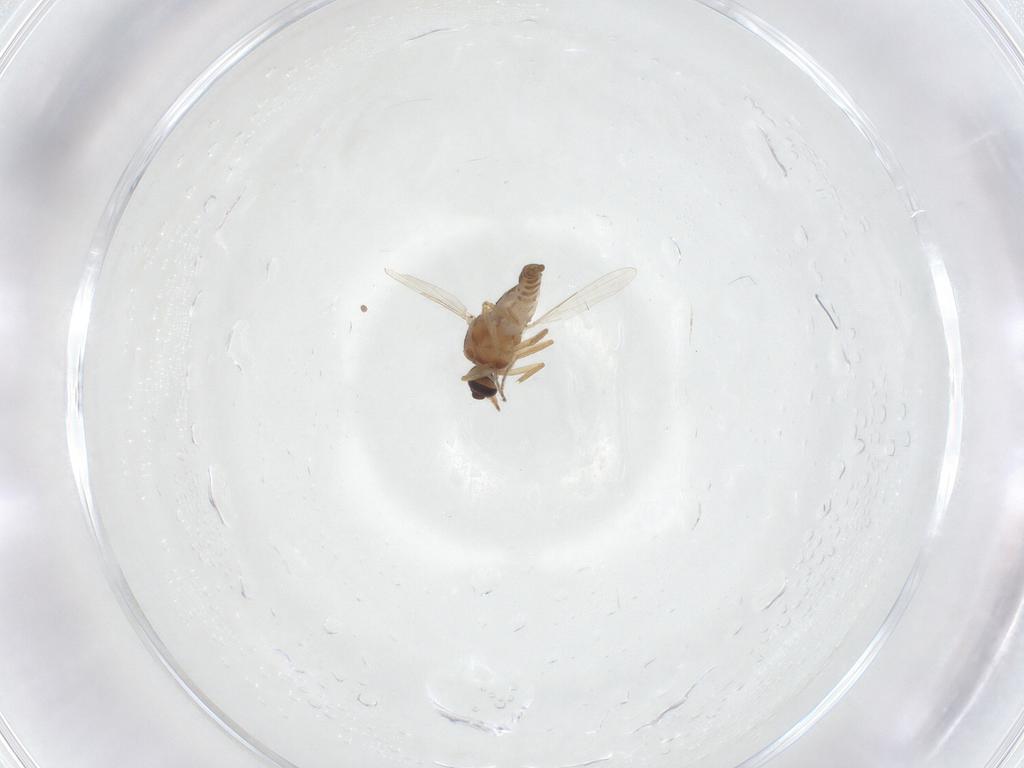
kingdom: Animalia
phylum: Arthropoda
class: Insecta
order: Diptera
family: Ceratopogonidae
